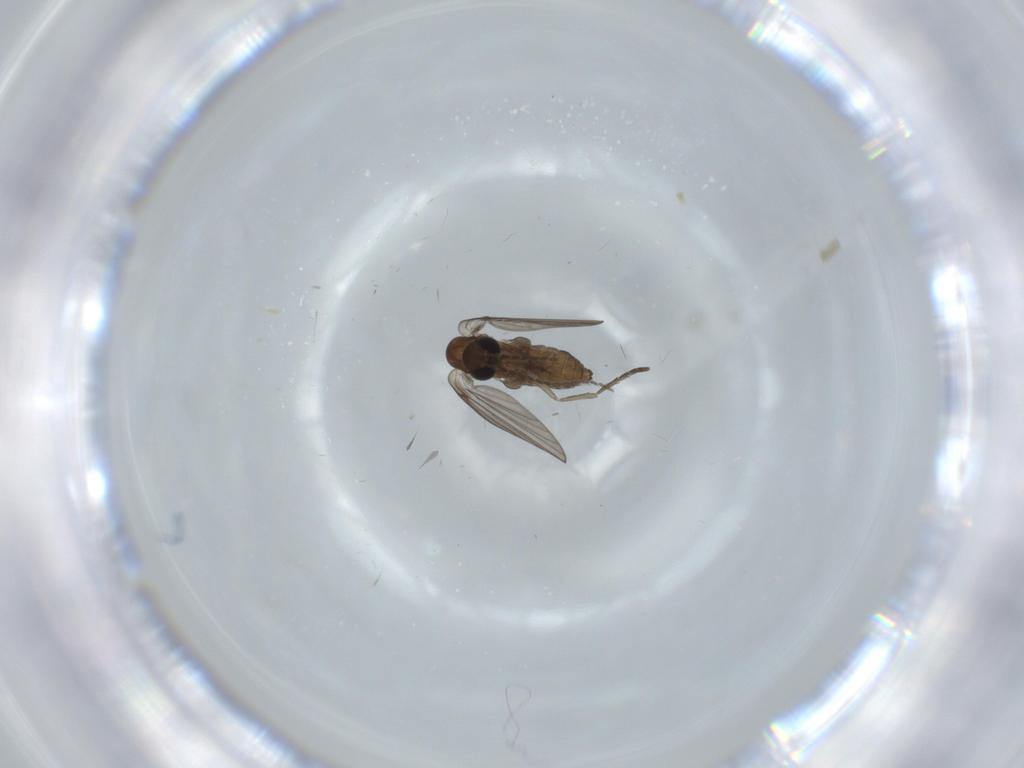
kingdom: Animalia
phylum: Arthropoda
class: Insecta
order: Diptera
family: Psychodidae
